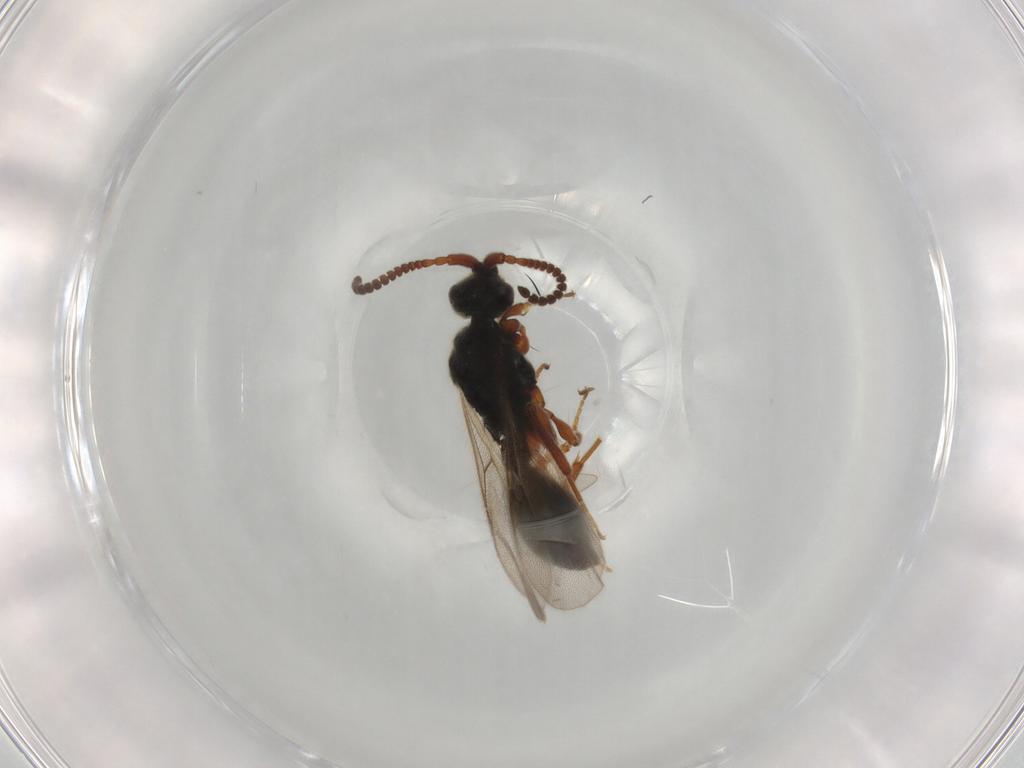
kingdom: Animalia
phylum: Arthropoda
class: Insecta
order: Hymenoptera
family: Diapriidae
